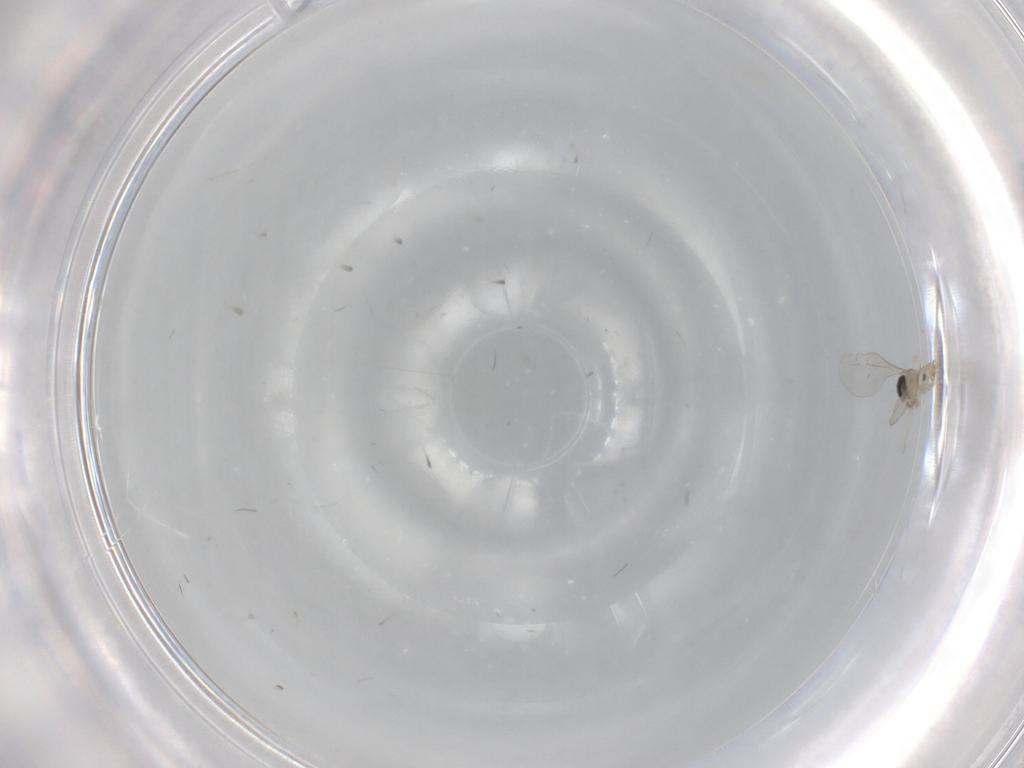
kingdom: Animalia
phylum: Arthropoda
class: Insecta
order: Diptera
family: Cecidomyiidae
